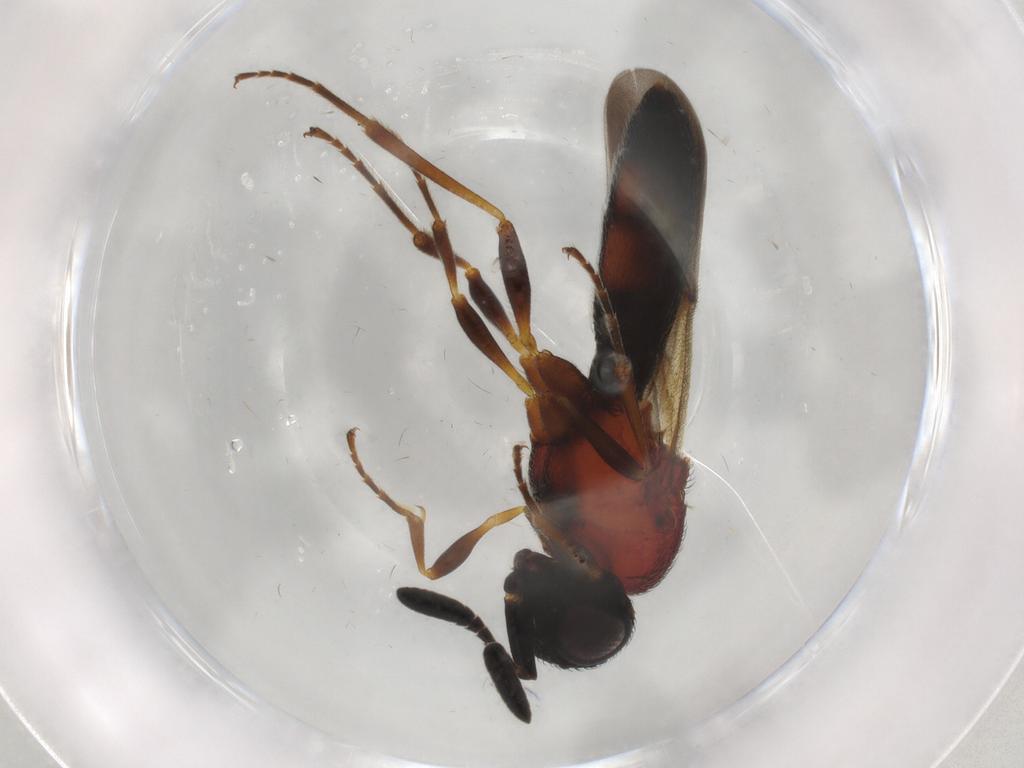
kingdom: Animalia
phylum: Arthropoda
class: Insecta
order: Hymenoptera
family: Scelionidae
